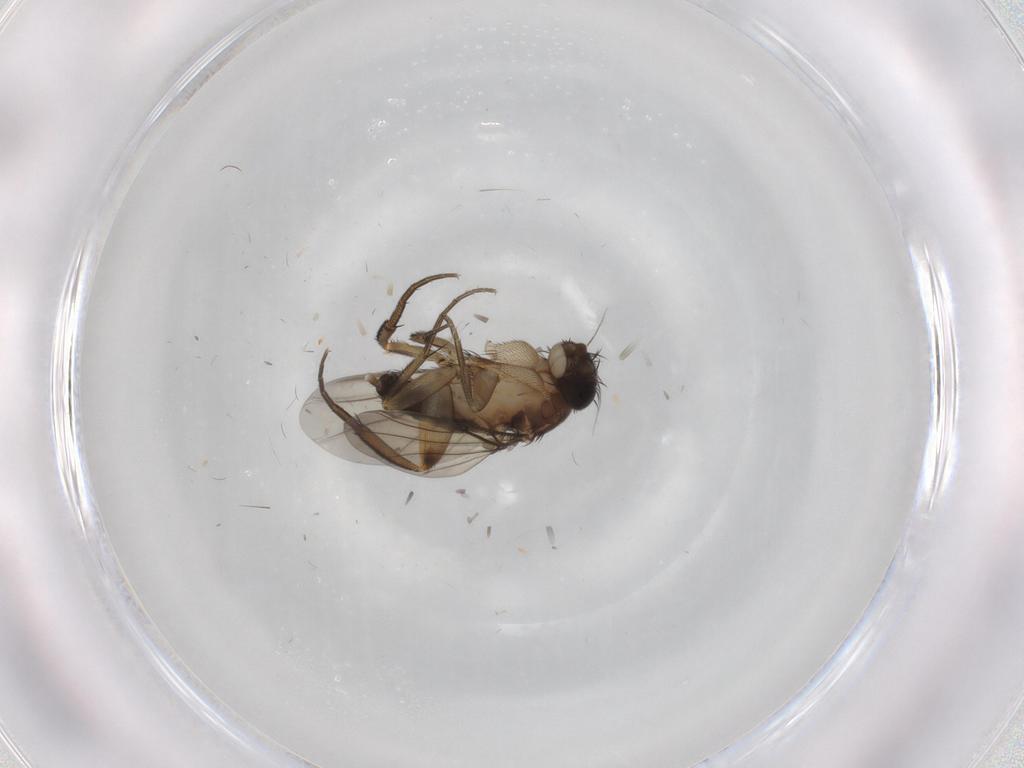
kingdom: Animalia
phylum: Arthropoda
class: Insecta
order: Diptera
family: Phoridae
